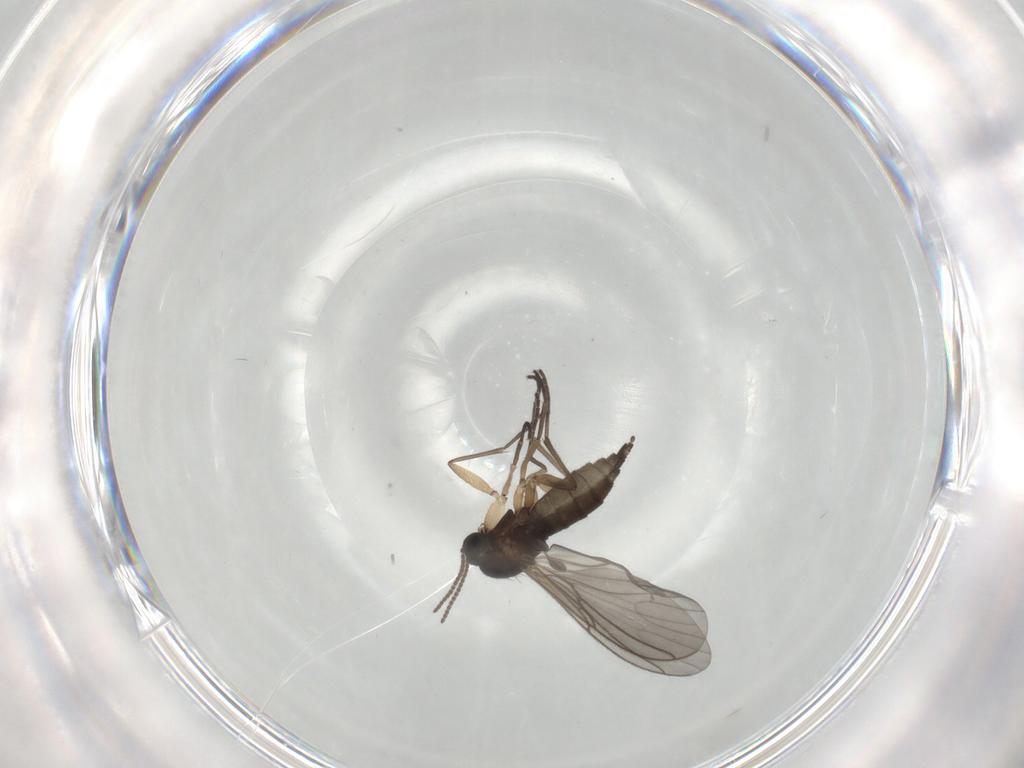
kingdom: Animalia
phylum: Arthropoda
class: Insecta
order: Diptera
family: Sciaridae
